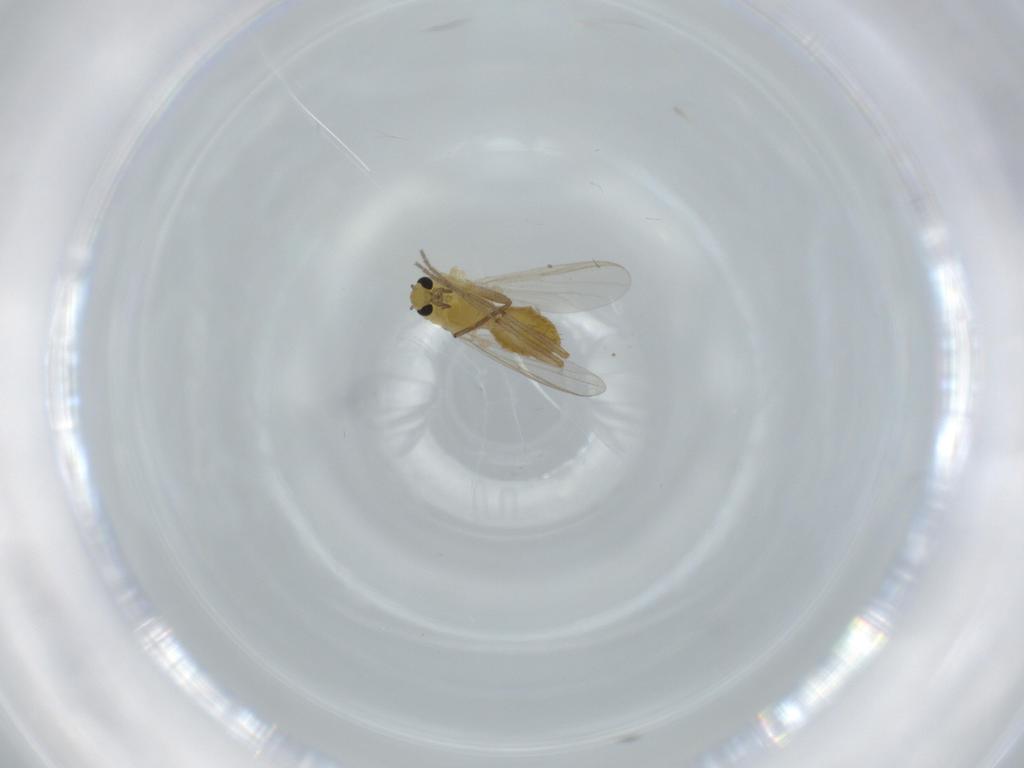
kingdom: Animalia
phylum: Arthropoda
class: Insecta
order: Diptera
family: Chironomidae
